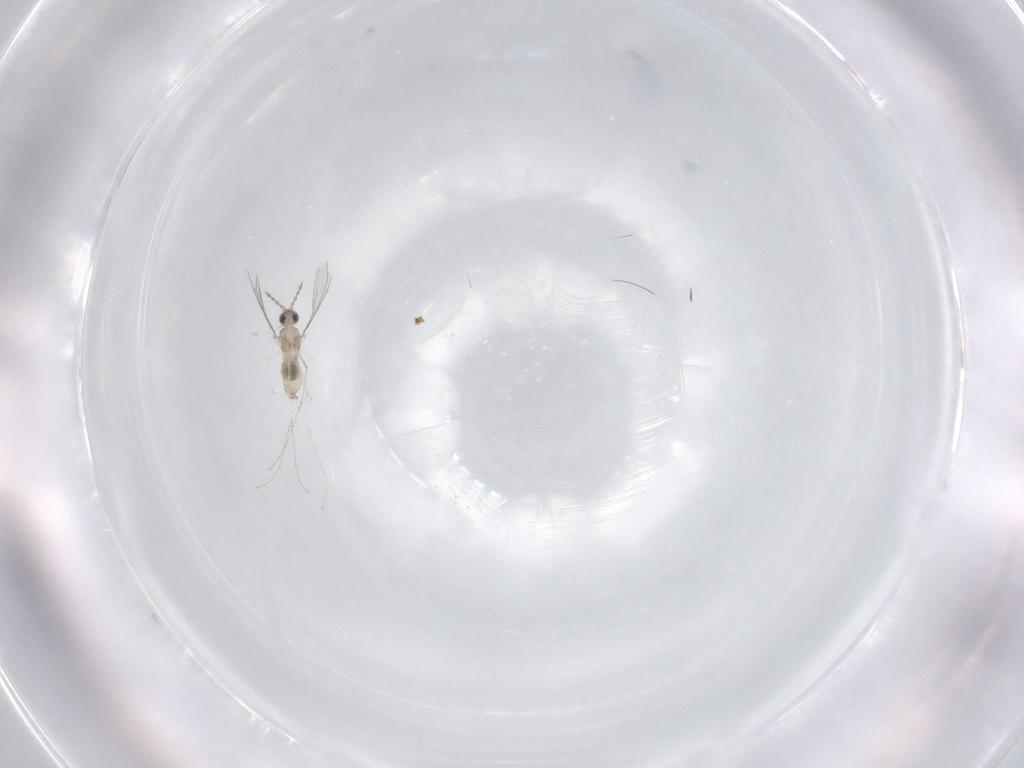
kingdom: Animalia
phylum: Arthropoda
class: Insecta
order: Diptera
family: Cecidomyiidae
